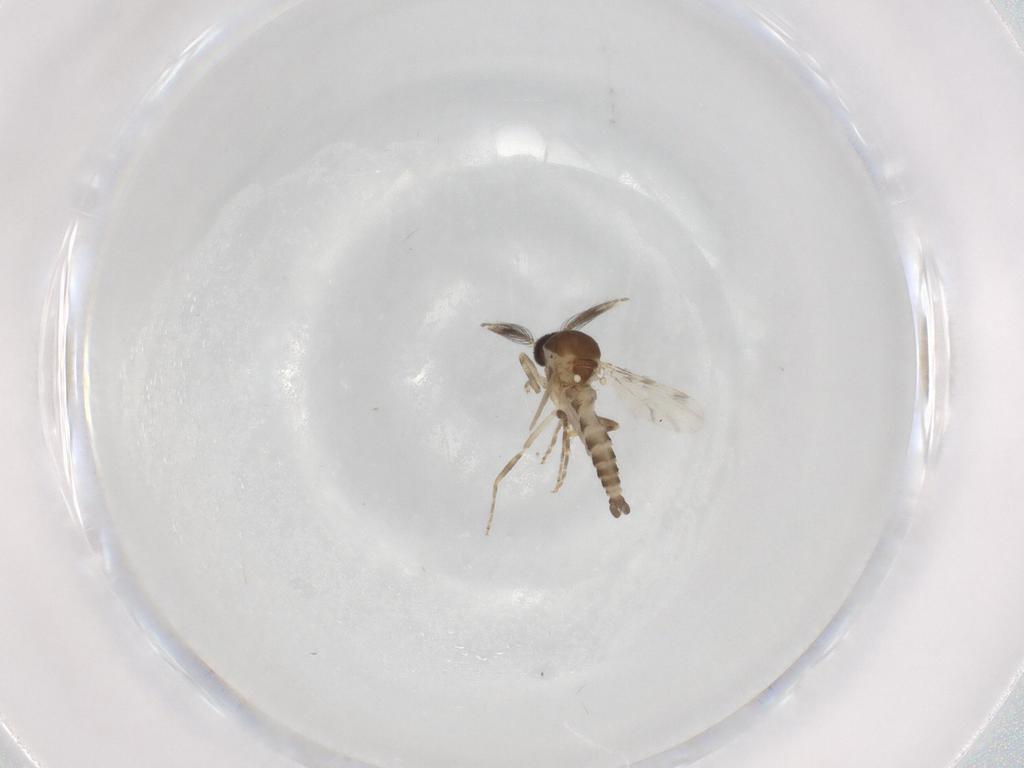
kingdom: Animalia
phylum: Arthropoda
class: Insecta
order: Diptera
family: Ceratopogonidae
